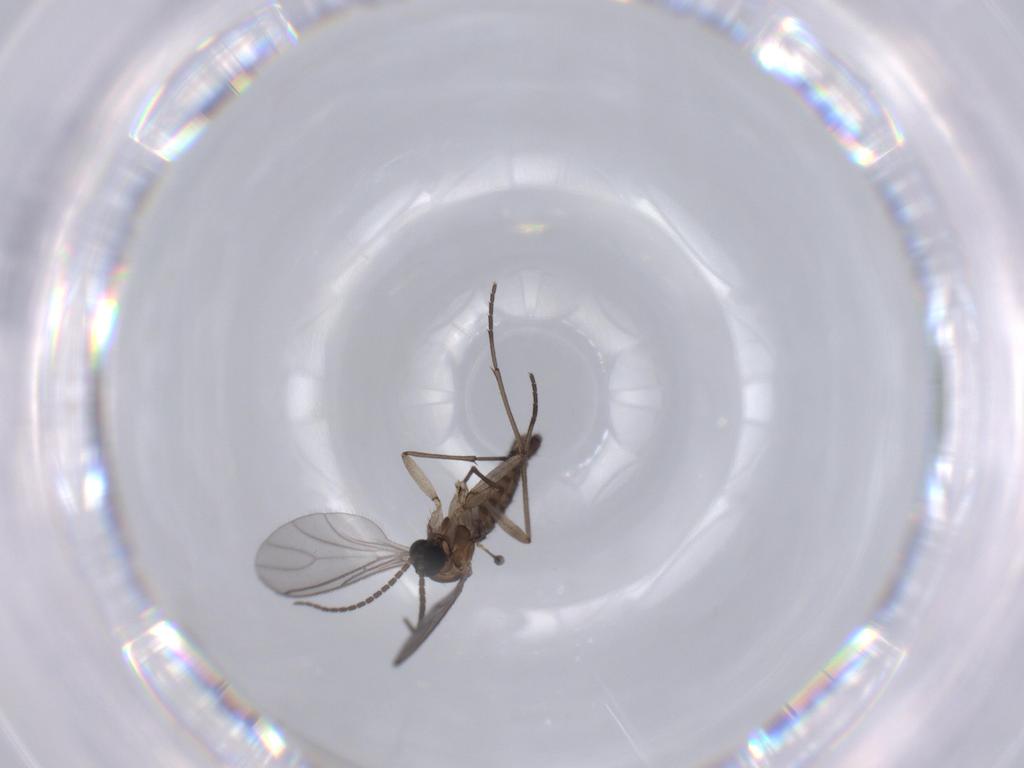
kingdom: Animalia
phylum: Arthropoda
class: Insecta
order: Diptera
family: Sciaridae
